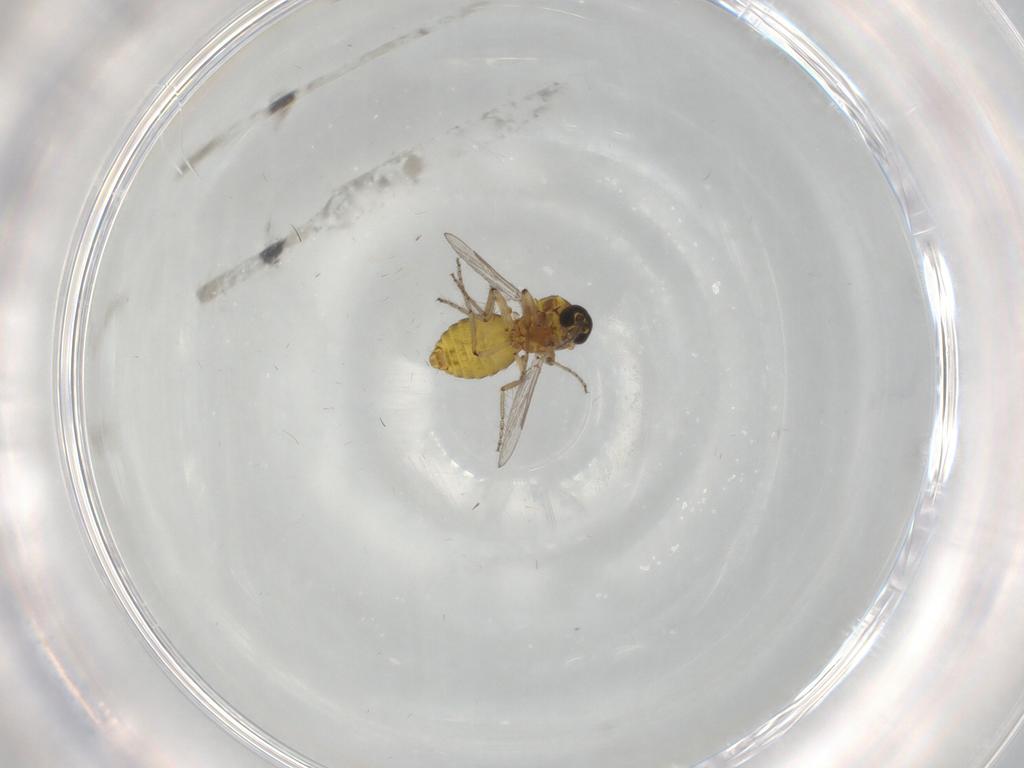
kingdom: Animalia
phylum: Arthropoda
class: Insecta
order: Diptera
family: Ceratopogonidae
